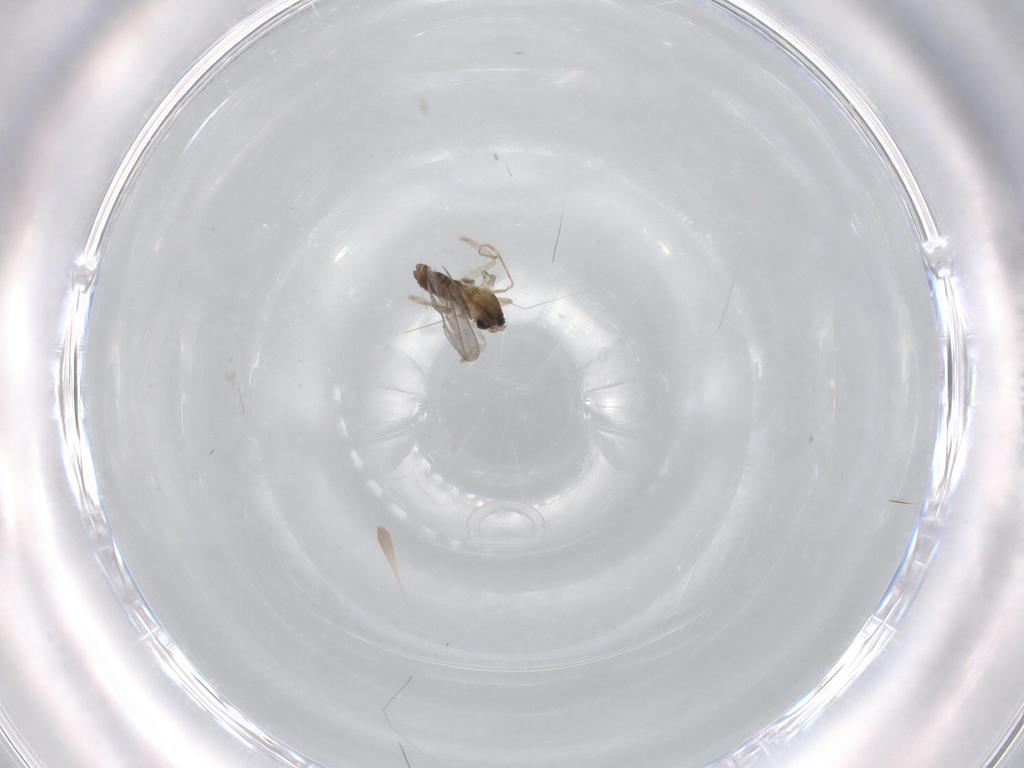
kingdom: Animalia
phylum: Arthropoda
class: Insecta
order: Diptera
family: Cecidomyiidae
